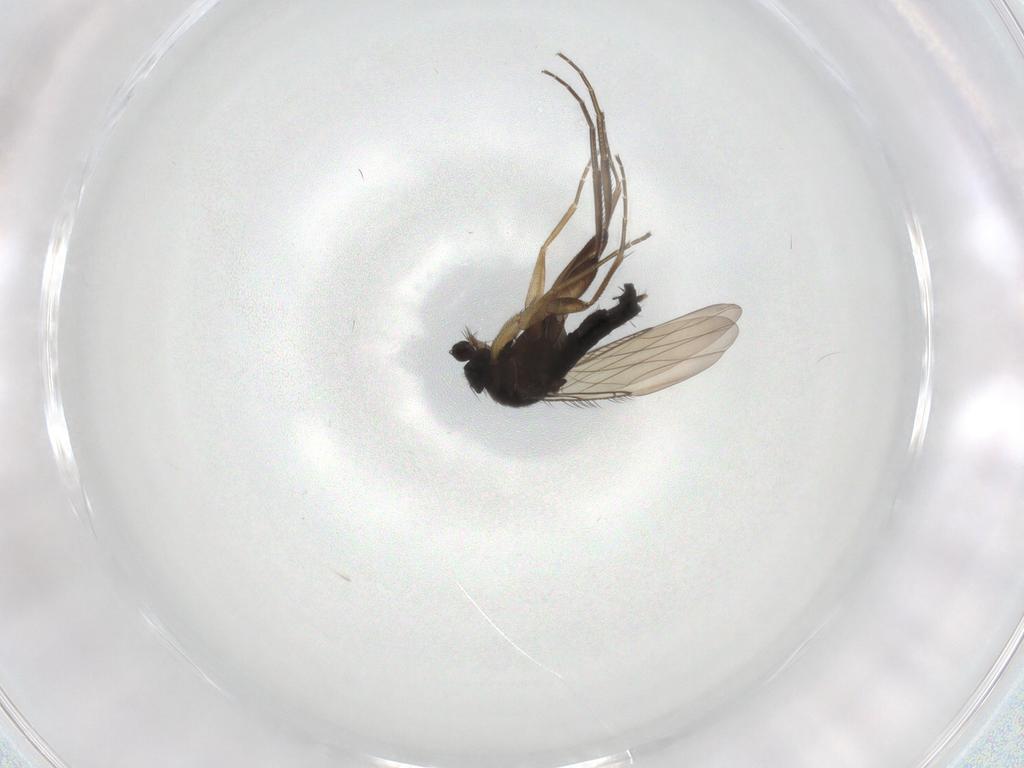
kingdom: Animalia
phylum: Arthropoda
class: Insecta
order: Diptera
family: Phoridae
